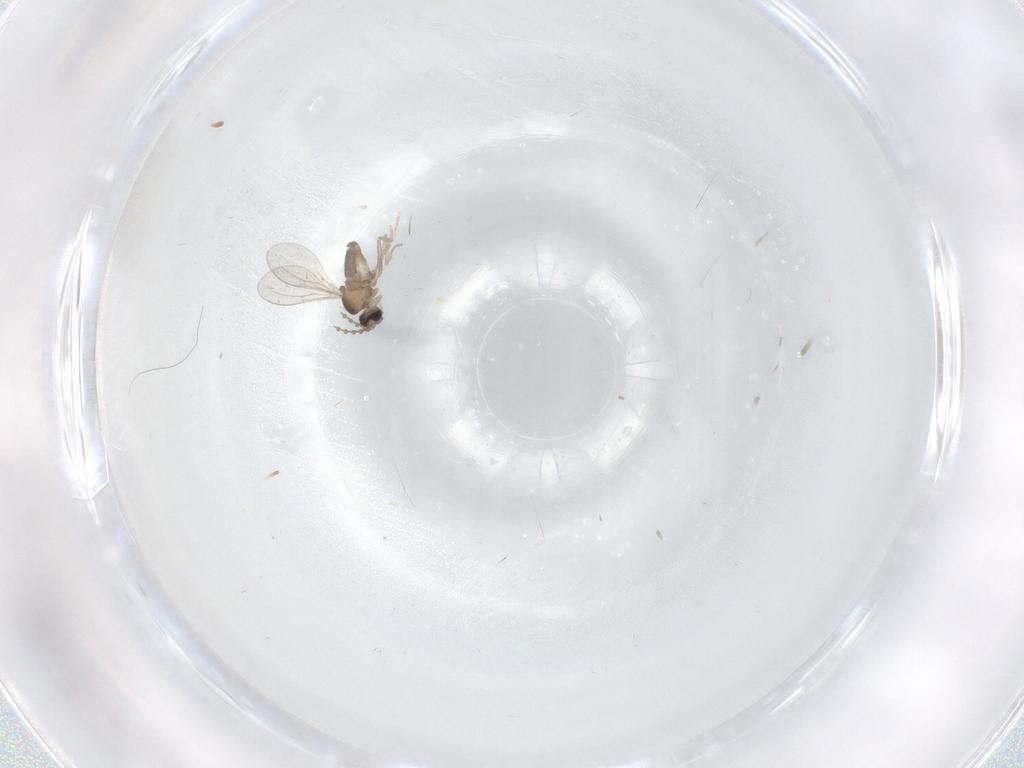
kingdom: Animalia
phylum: Arthropoda
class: Insecta
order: Diptera
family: Cecidomyiidae
